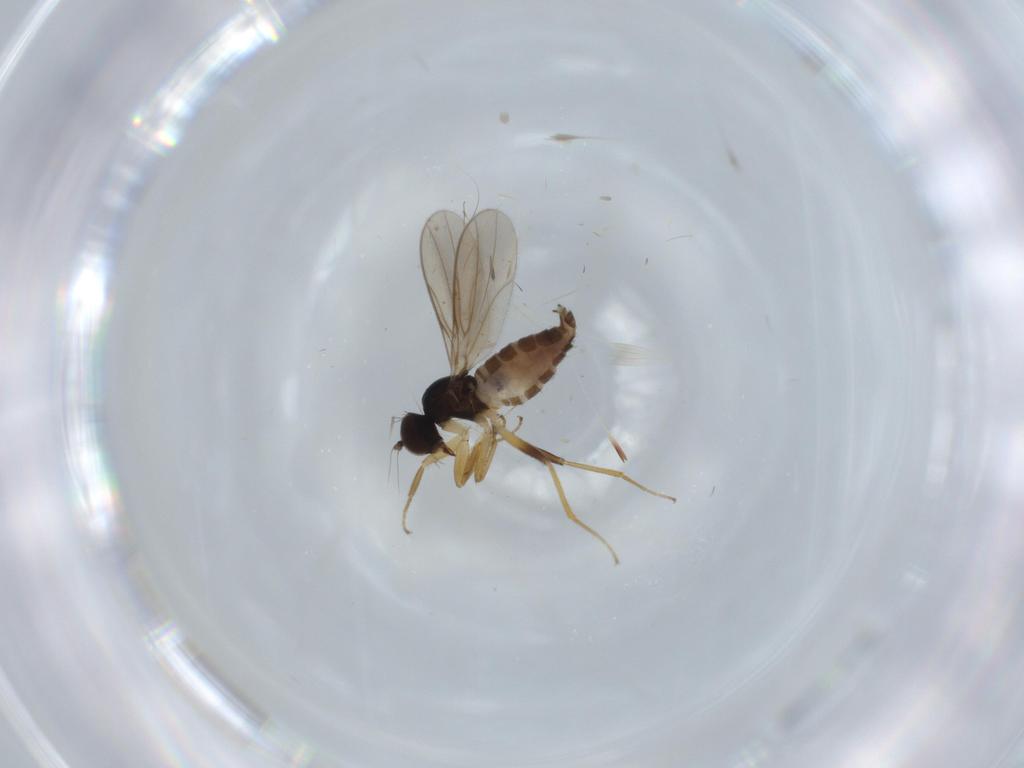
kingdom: Animalia
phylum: Arthropoda
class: Insecta
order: Diptera
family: Hybotidae
